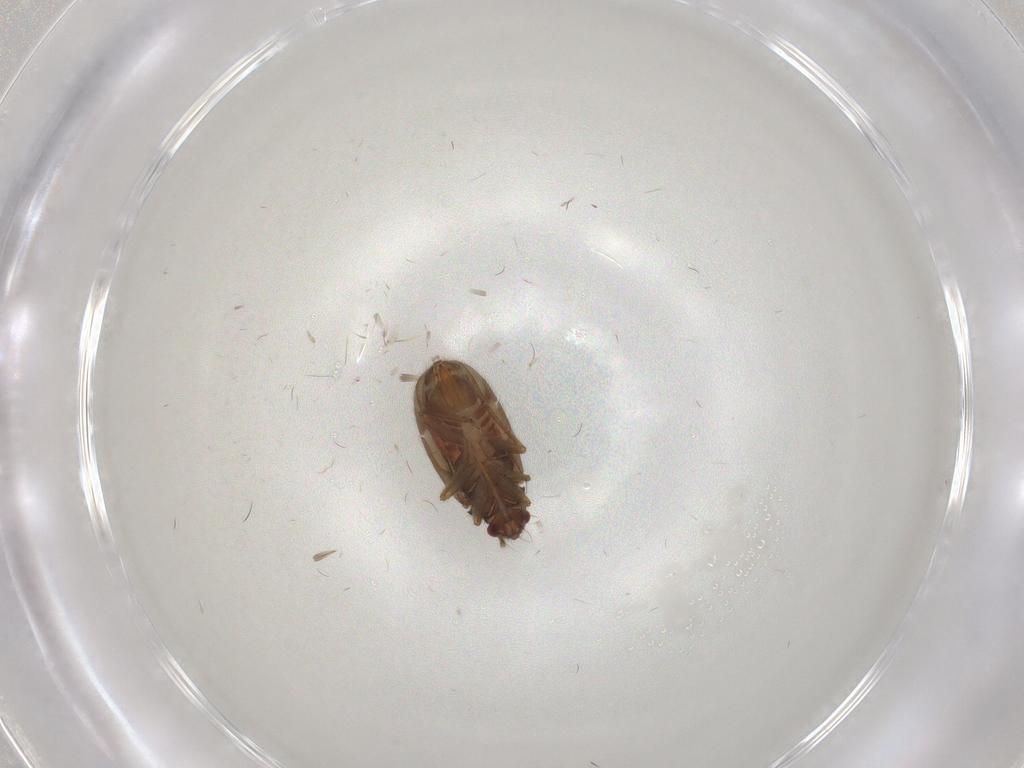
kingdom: Animalia
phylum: Arthropoda
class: Insecta
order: Hemiptera
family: Ceratocombidae
